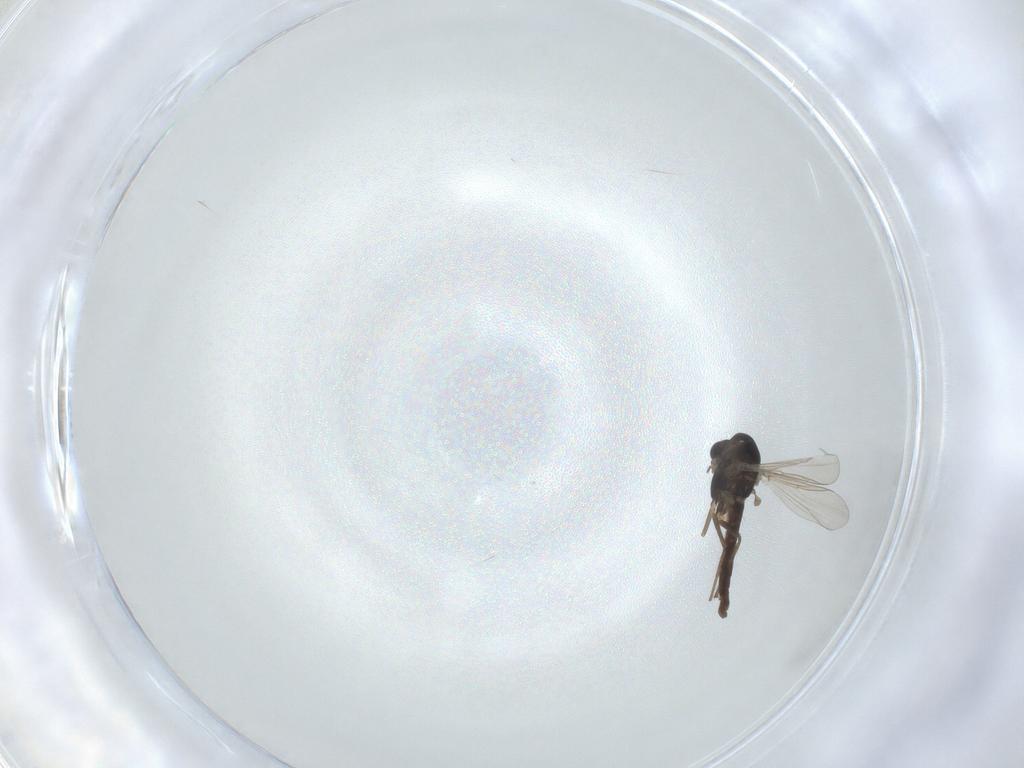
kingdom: Animalia
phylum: Arthropoda
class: Insecta
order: Diptera
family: Chironomidae
